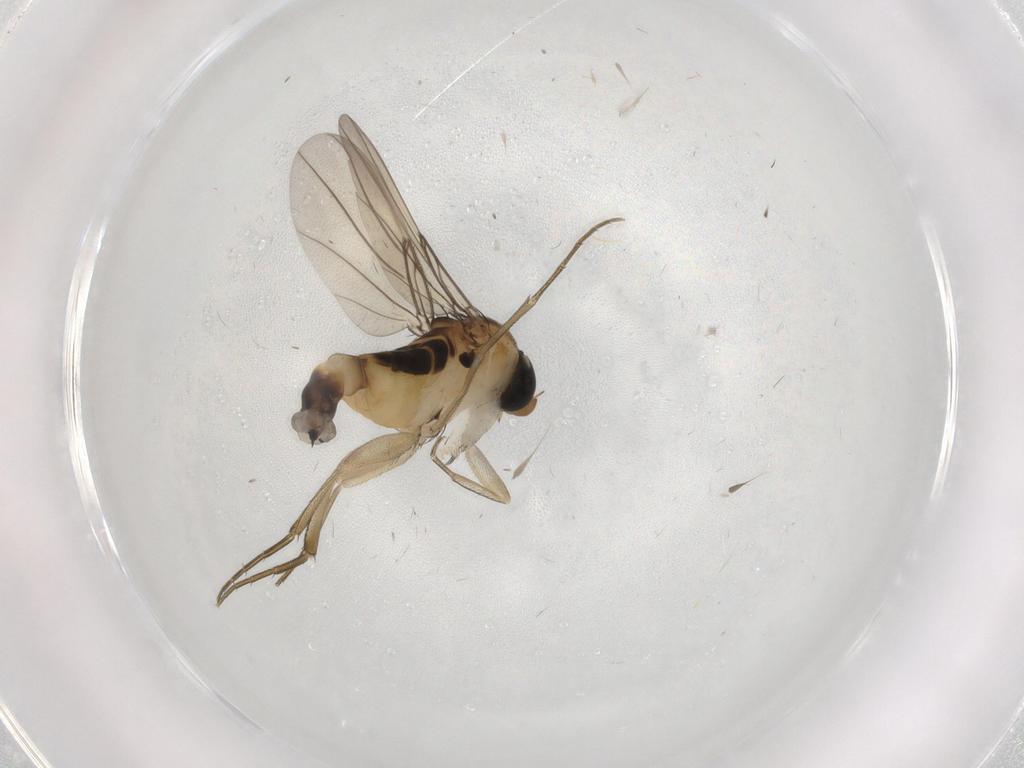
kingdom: Animalia
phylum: Arthropoda
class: Insecta
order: Diptera
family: Phoridae
